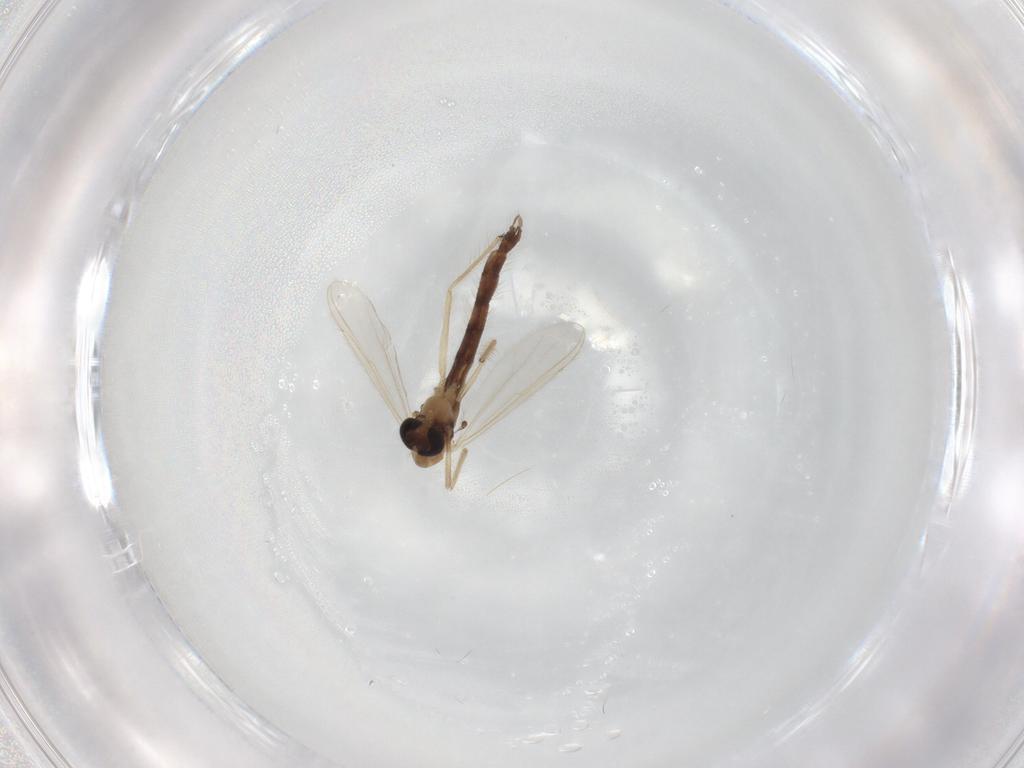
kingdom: Animalia
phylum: Arthropoda
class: Insecta
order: Diptera
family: Chironomidae
